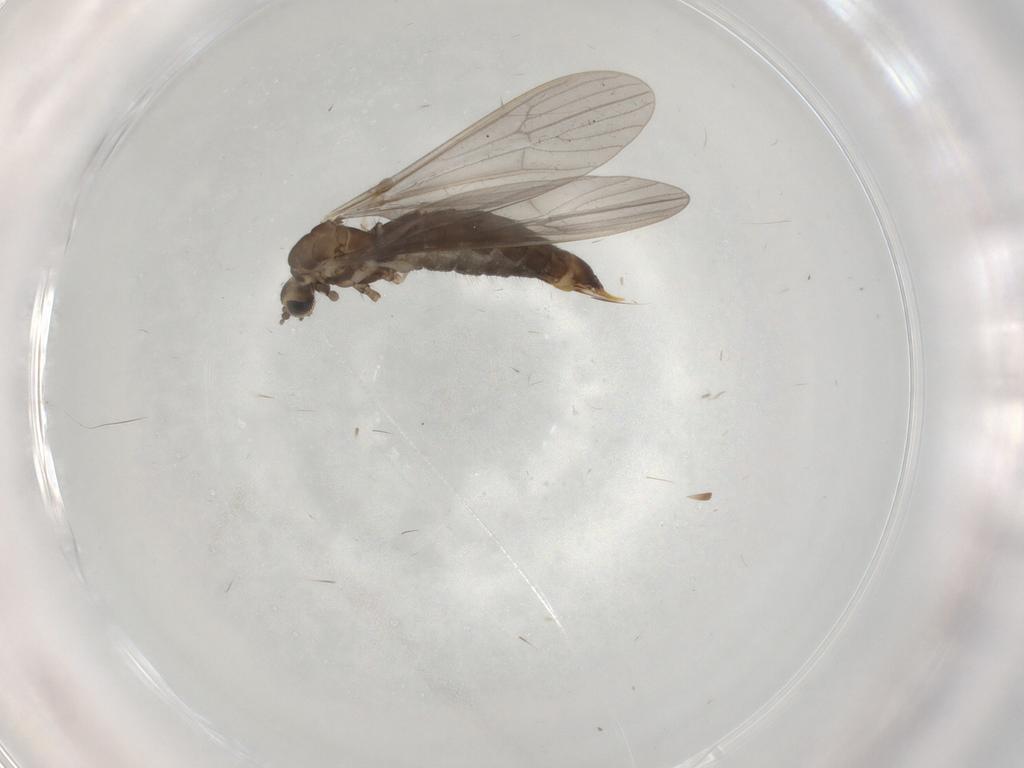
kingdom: Animalia
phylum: Arthropoda
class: Insecta
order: Diptera
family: Limoniidae
